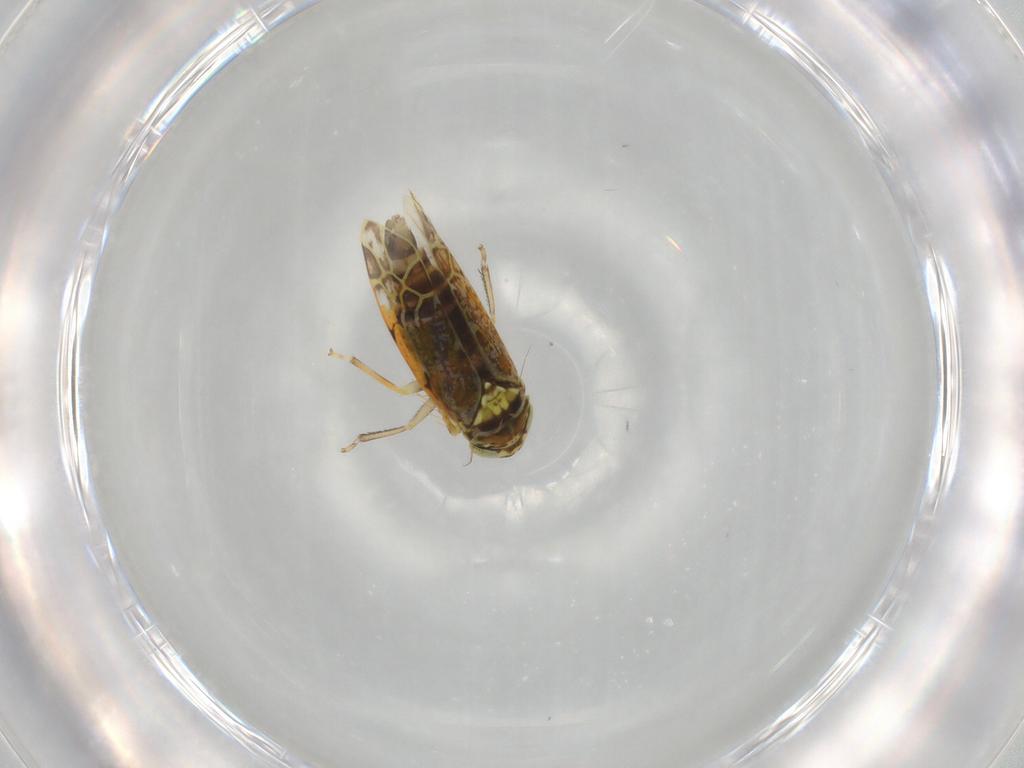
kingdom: Animalia
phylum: Arthropoda
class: Insecta
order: Hemiptera
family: Cicadellidae
